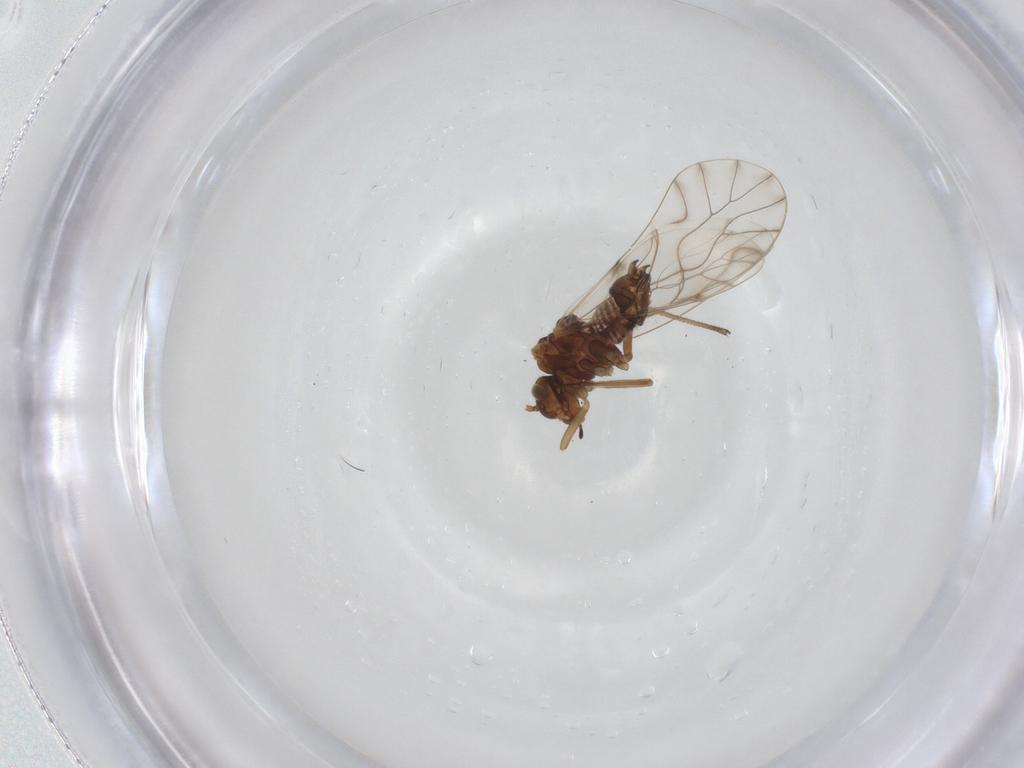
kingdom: Animalia
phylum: Arthropoda
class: Insecta
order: Psocodea
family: Lachesillidae
